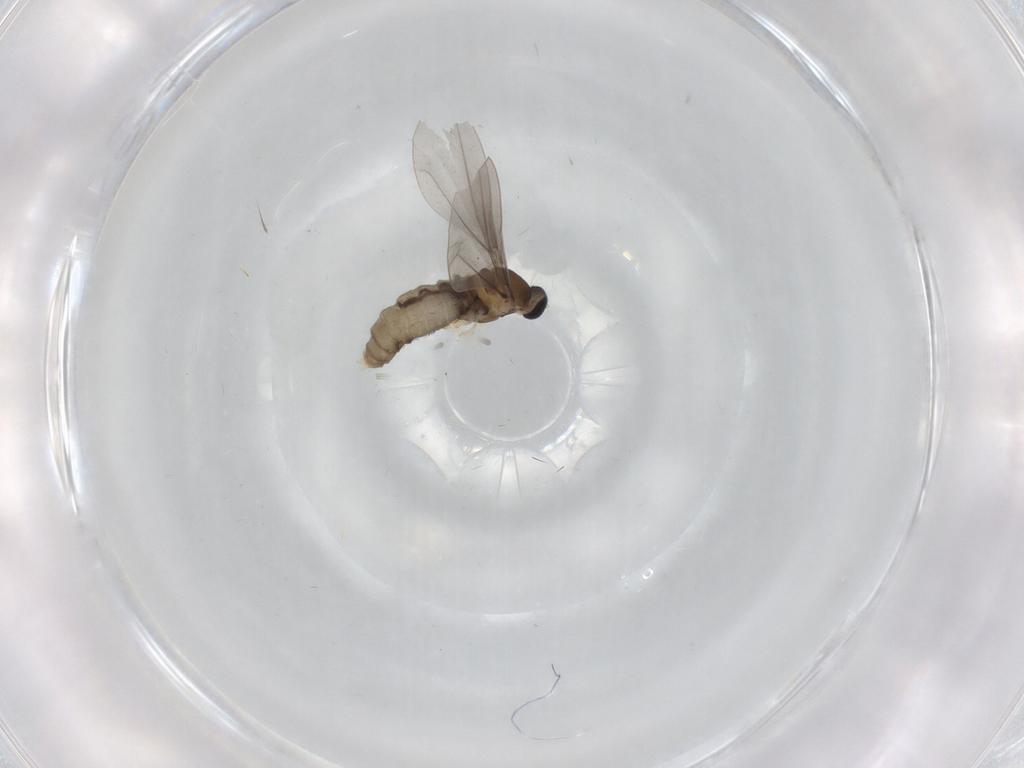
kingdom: Animalia
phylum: Arthropoda
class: Insecta
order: Diptera
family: Cecidomyiidae
